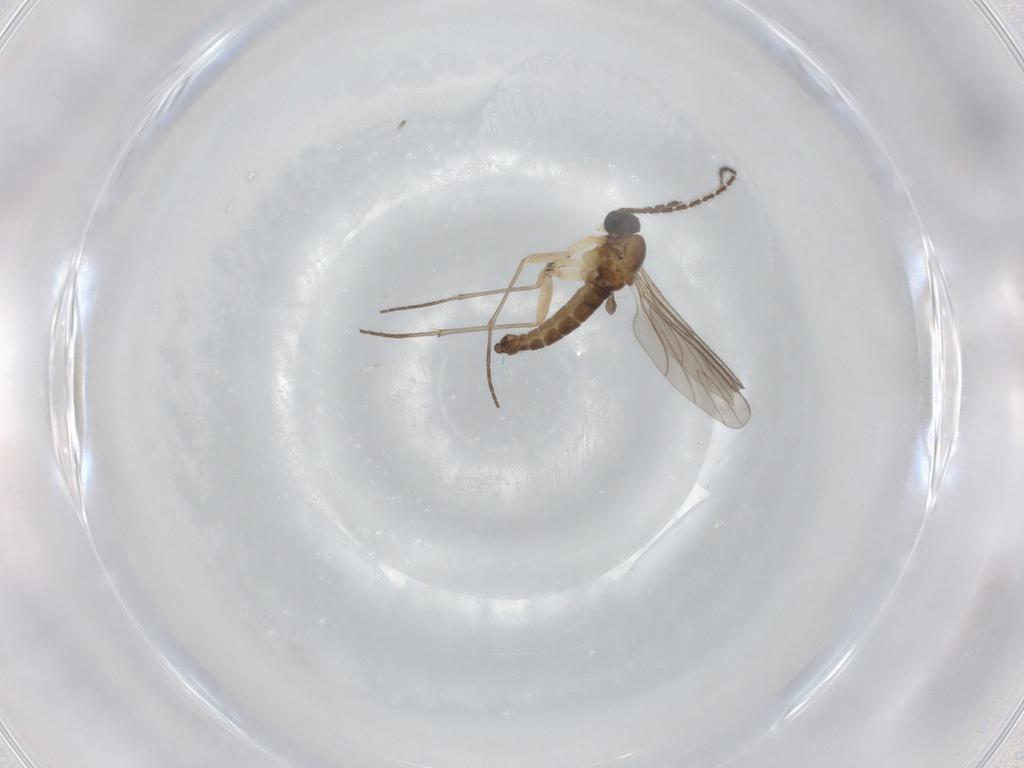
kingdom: Animalia
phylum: Arthropoda
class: Insecta
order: Diptera
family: Sciaridae
